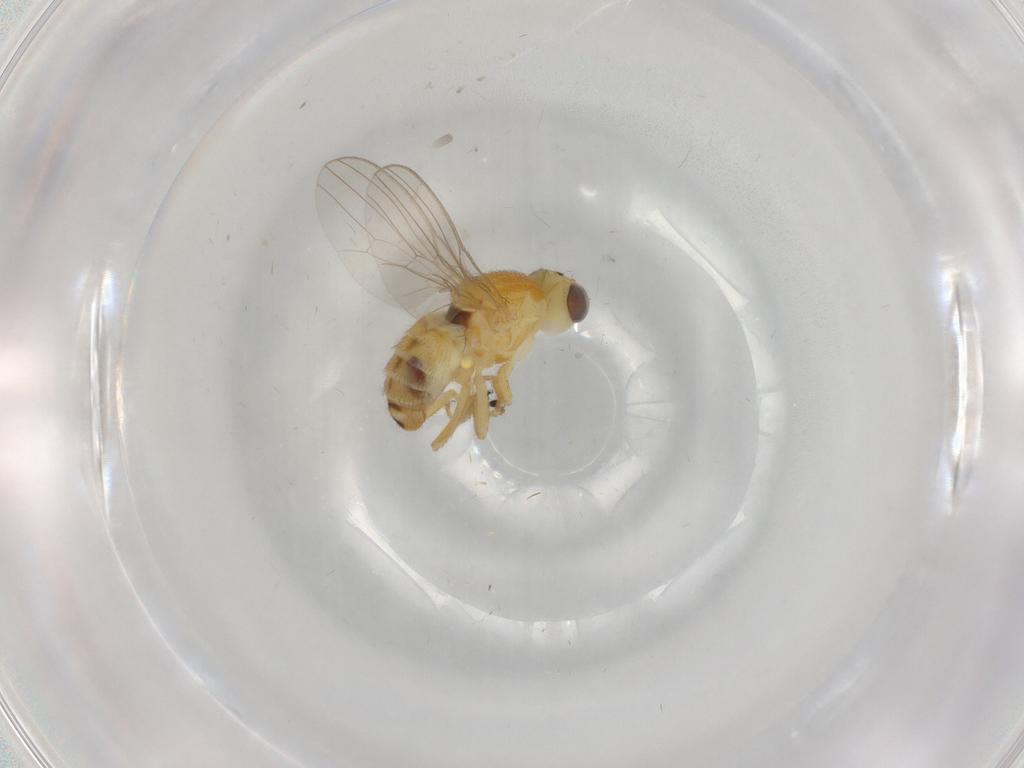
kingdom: Animalia
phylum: Arthropoda
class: Insecta
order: Diptera
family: Chyromyidae
